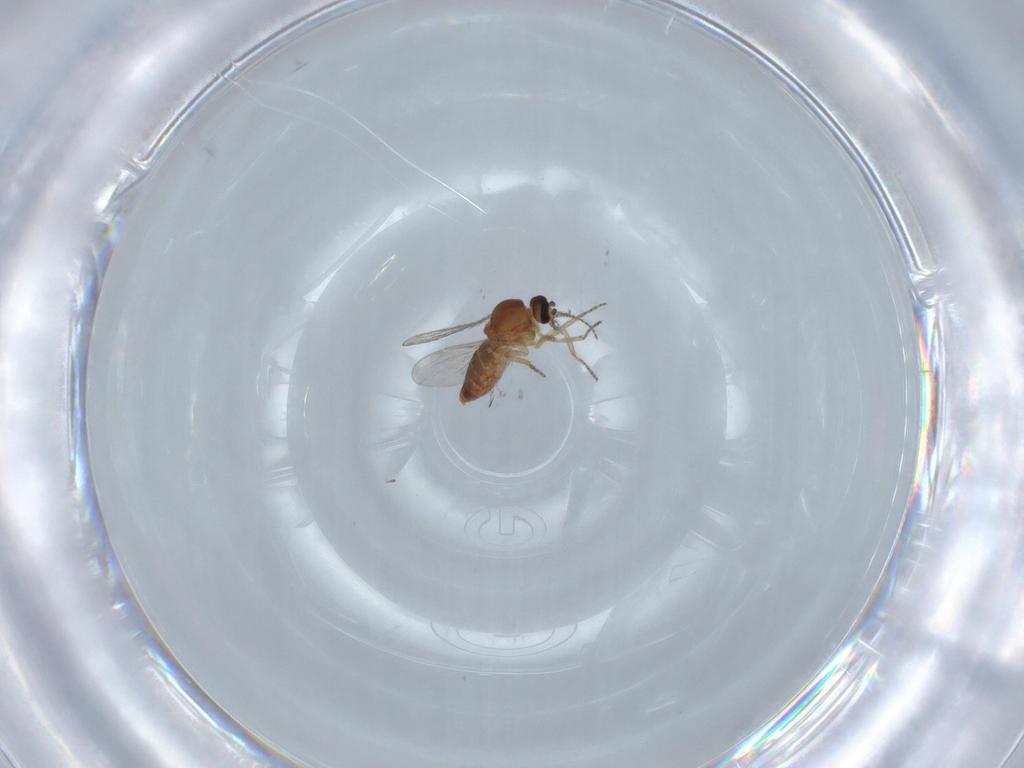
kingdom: Animalia
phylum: Arthropoda
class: Insecta
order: Diptera
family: Ceratopogonidae
